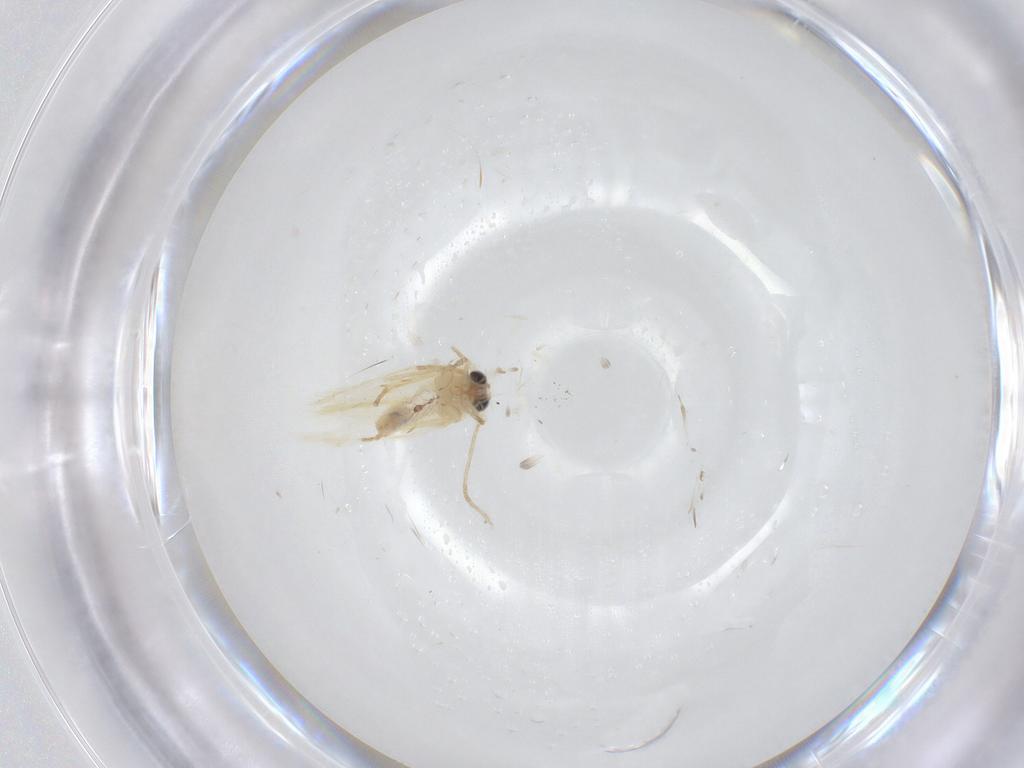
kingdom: Animalia
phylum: Arthropoda
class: Insecta
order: Lepidoptera
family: Nepticulidae
